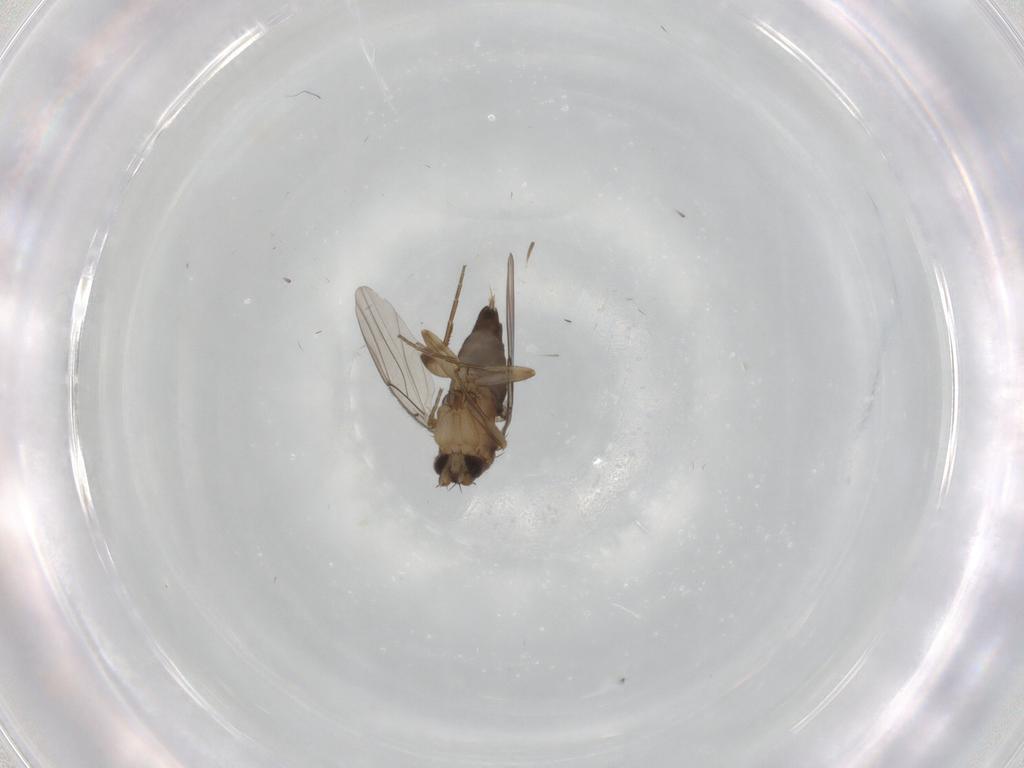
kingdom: Animalia
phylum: Arthropoda
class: Insecta
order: Diptera
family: Phoridae
